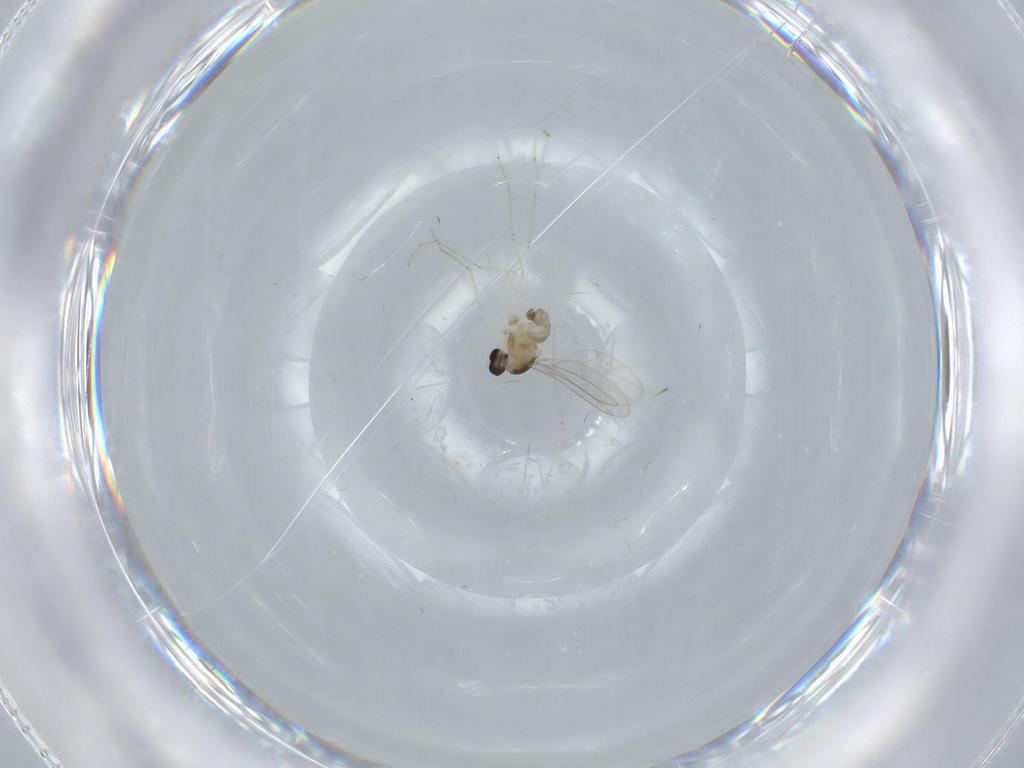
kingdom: Animalia
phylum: Arthropoda
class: Insecta
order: Diptera
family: Cecidomyiidae
